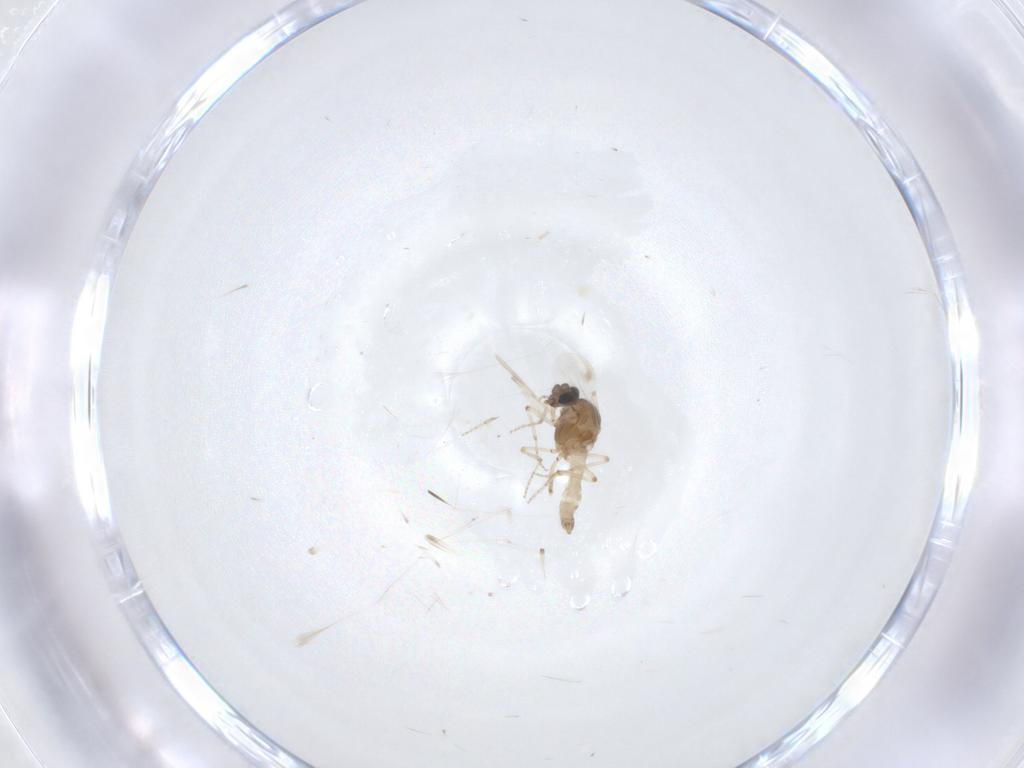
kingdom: Animalia
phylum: Arthropoda
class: Insecta
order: Diptera
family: Ceratopogonidae
